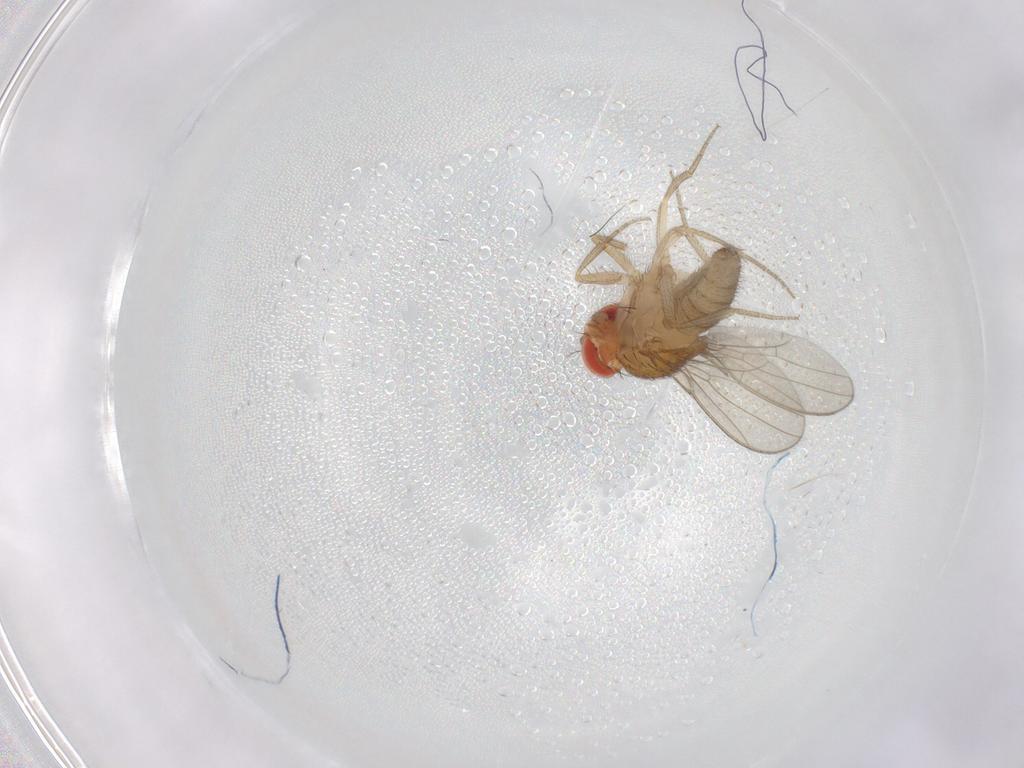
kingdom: Animalia
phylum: Arthropoda
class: Insecta
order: Diptera
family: Drosophilidae
